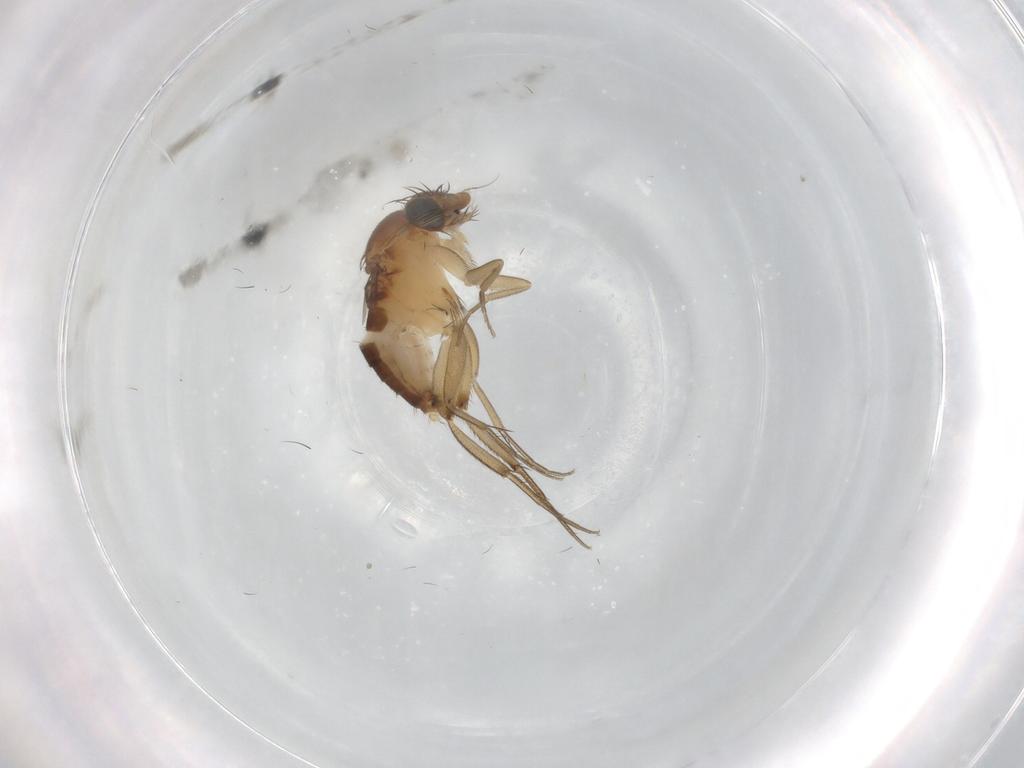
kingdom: Animalia
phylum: Arthropoda
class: Insecta
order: Diptera
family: Phoridae
